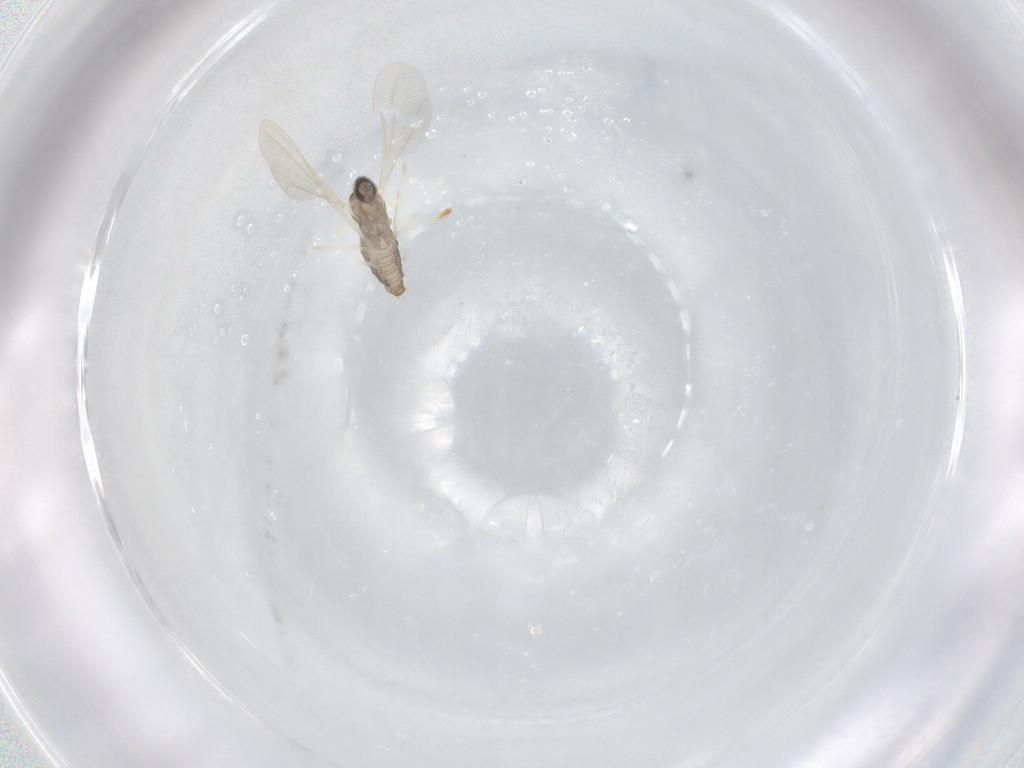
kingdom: Animalia
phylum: Arthropoda
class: Insecta
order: Diptera
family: Cecidomyiidae
